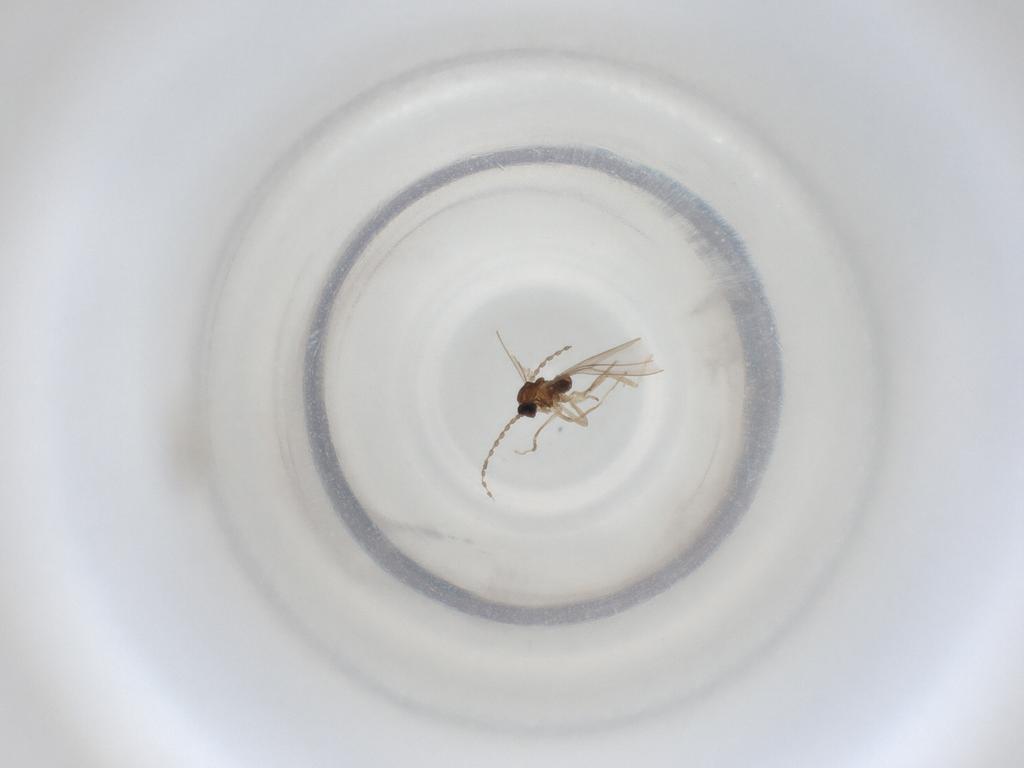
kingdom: Animalia
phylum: Arthropoda
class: Insecta
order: Diptera
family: Cecidomyiidae
